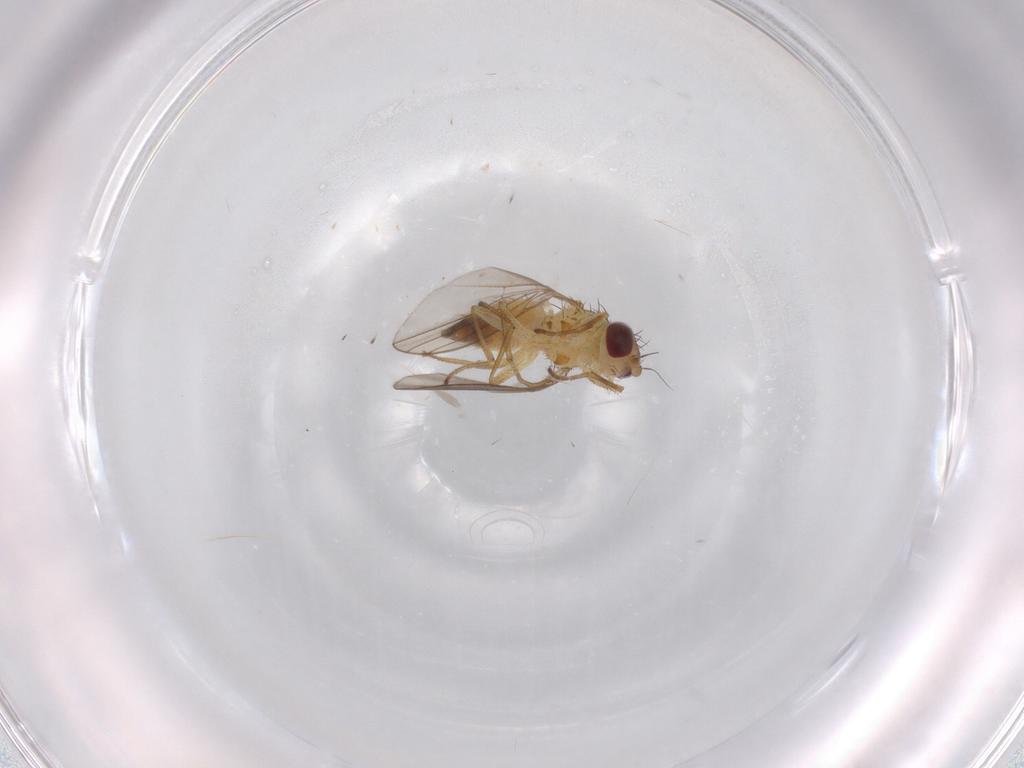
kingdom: Animalia
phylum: Arthropoda
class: Insecta
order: Diptera
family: Agromyzidae
